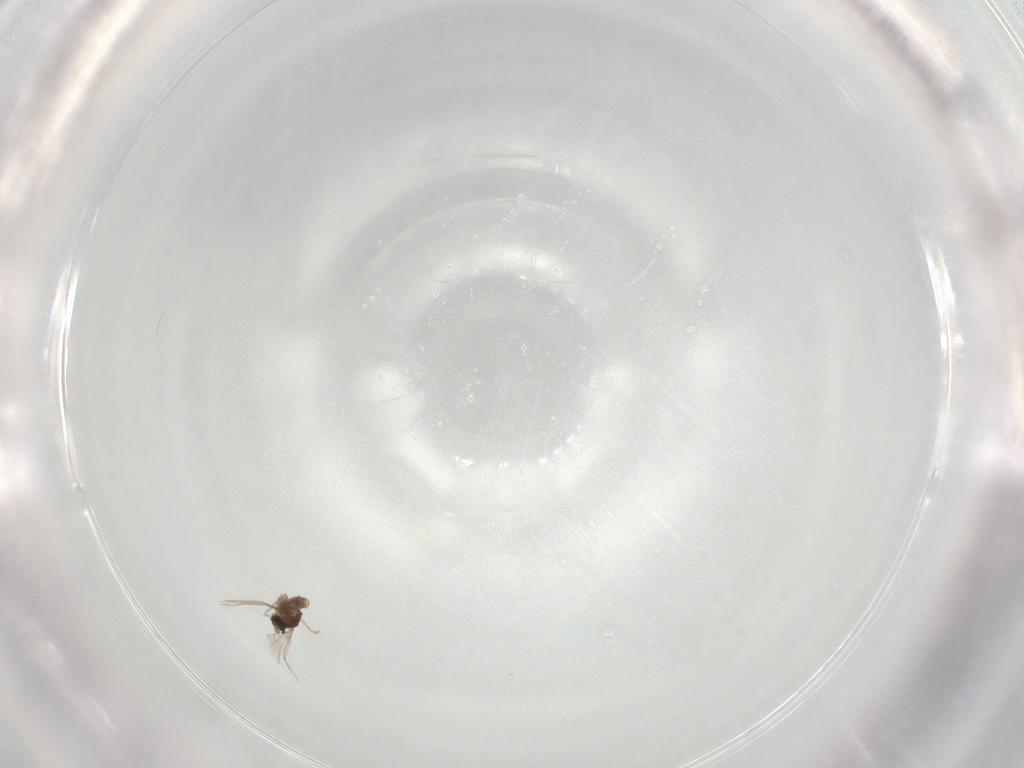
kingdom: Animalia
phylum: Arthropoda
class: Insecta
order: Diptera
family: Cecidomyiidae
